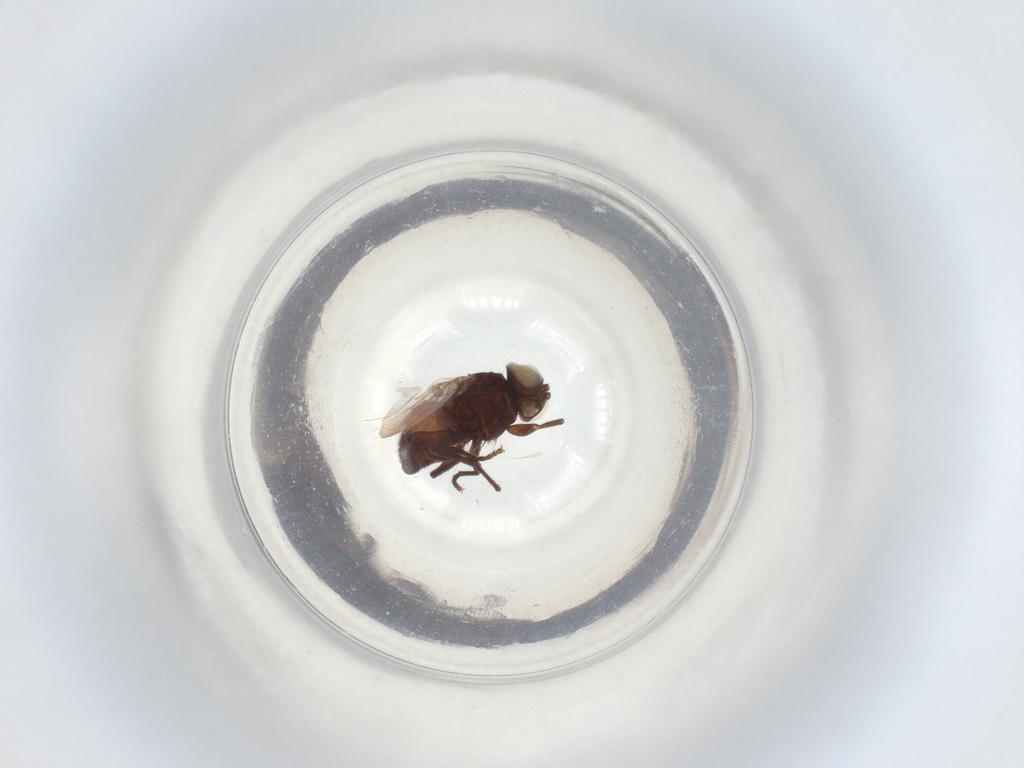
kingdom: Animalia
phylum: Arthropoda
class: Insecta
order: Diptera
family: Agromyzidae
